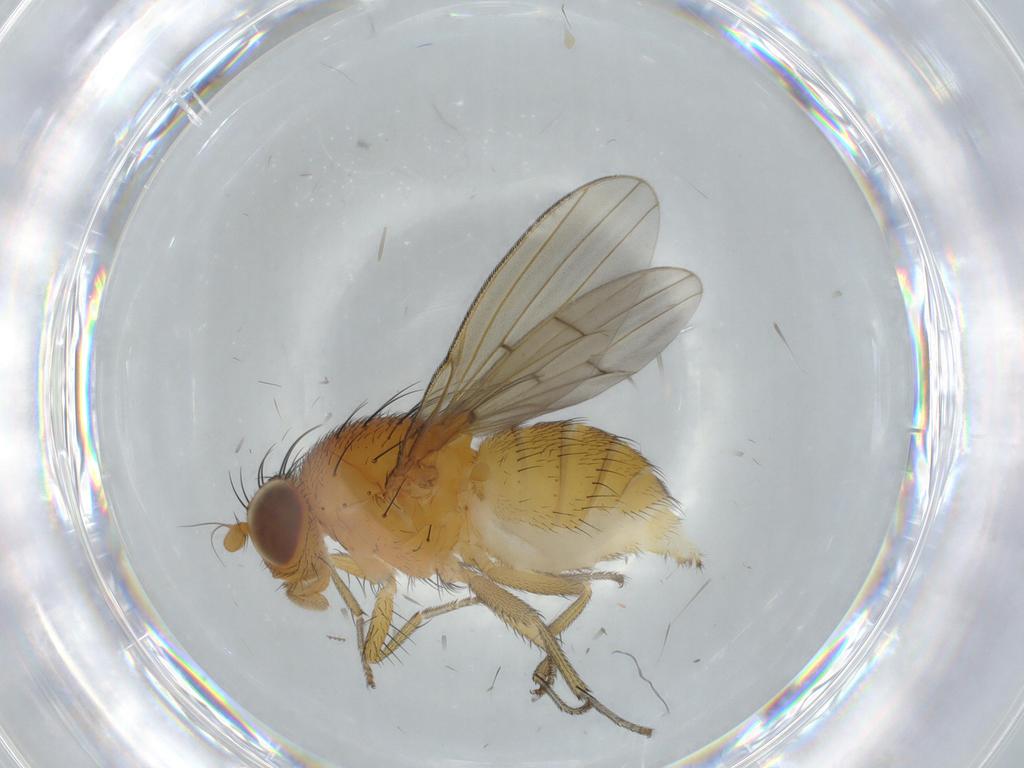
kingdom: Animalia
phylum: Arthropoda
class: Insecta
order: Diptera
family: Cecidomyiidae
